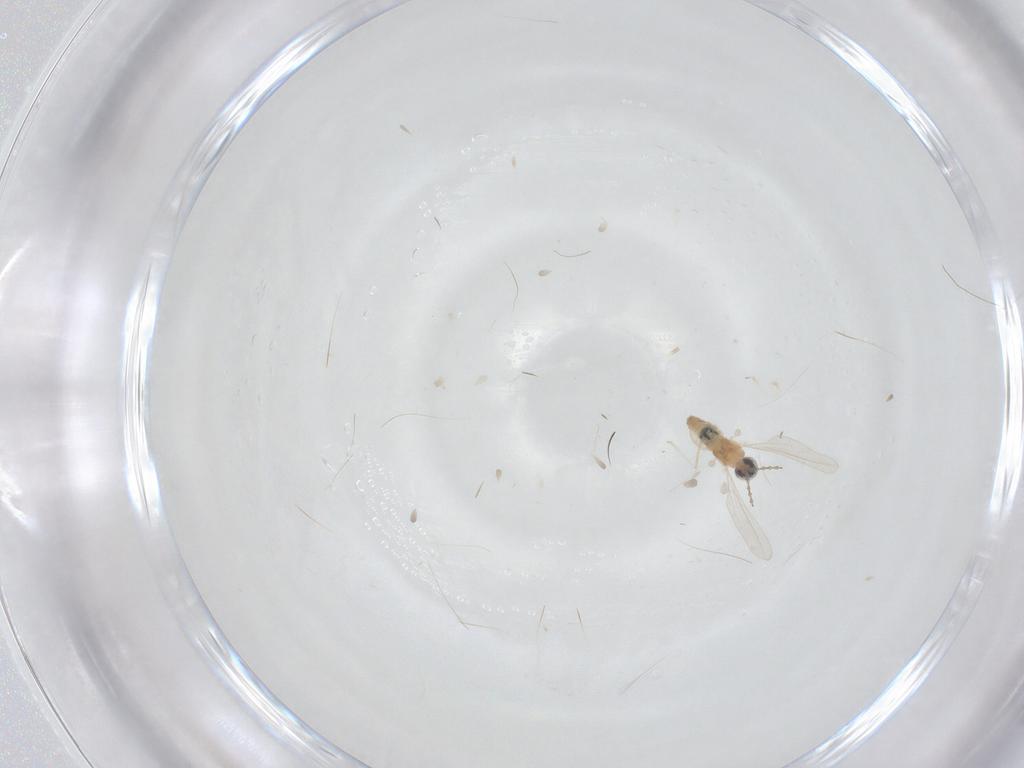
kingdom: Animalia
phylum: Arthropoda
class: Insecta
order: Diptera
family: Cecidomyiidae
